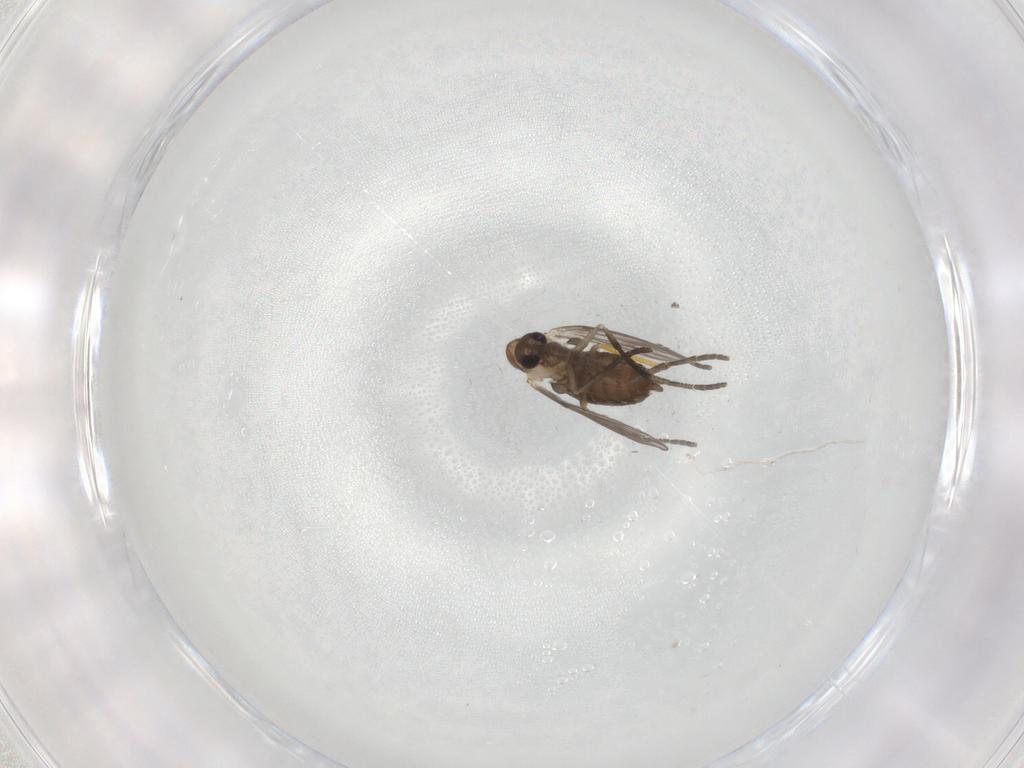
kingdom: Animalia
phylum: Arthropoda
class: Insecta
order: Diptera
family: Psychodidae
